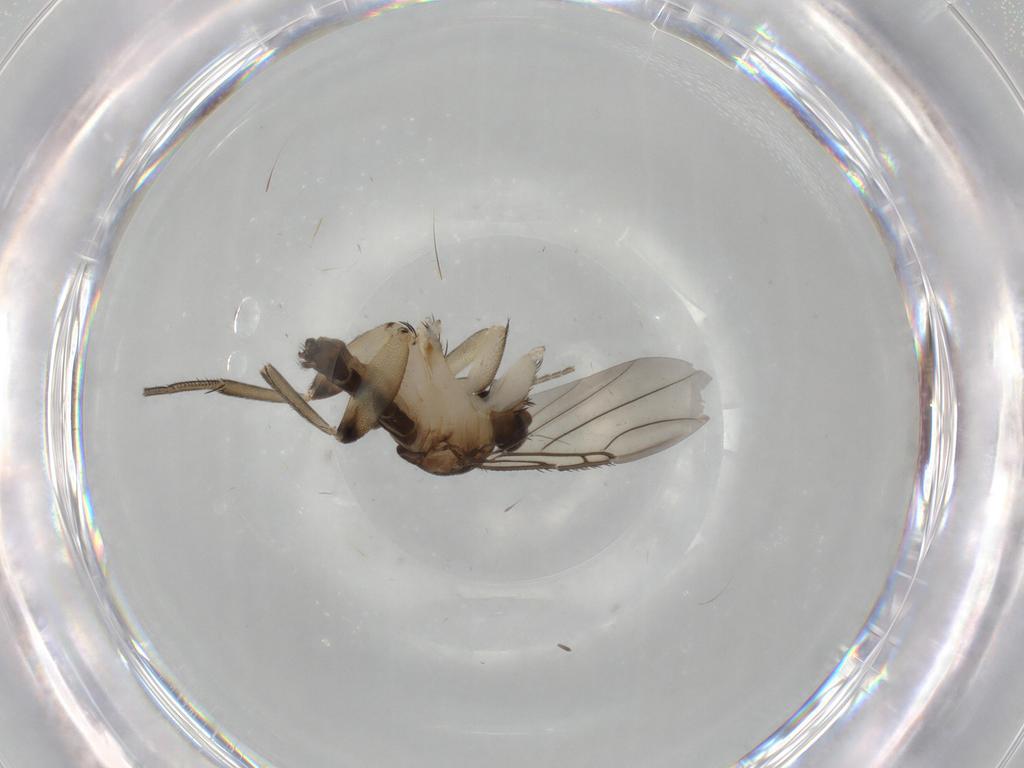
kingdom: Animalia
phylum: Arthropoda
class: Insecta
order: Diptera
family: Phoridae
